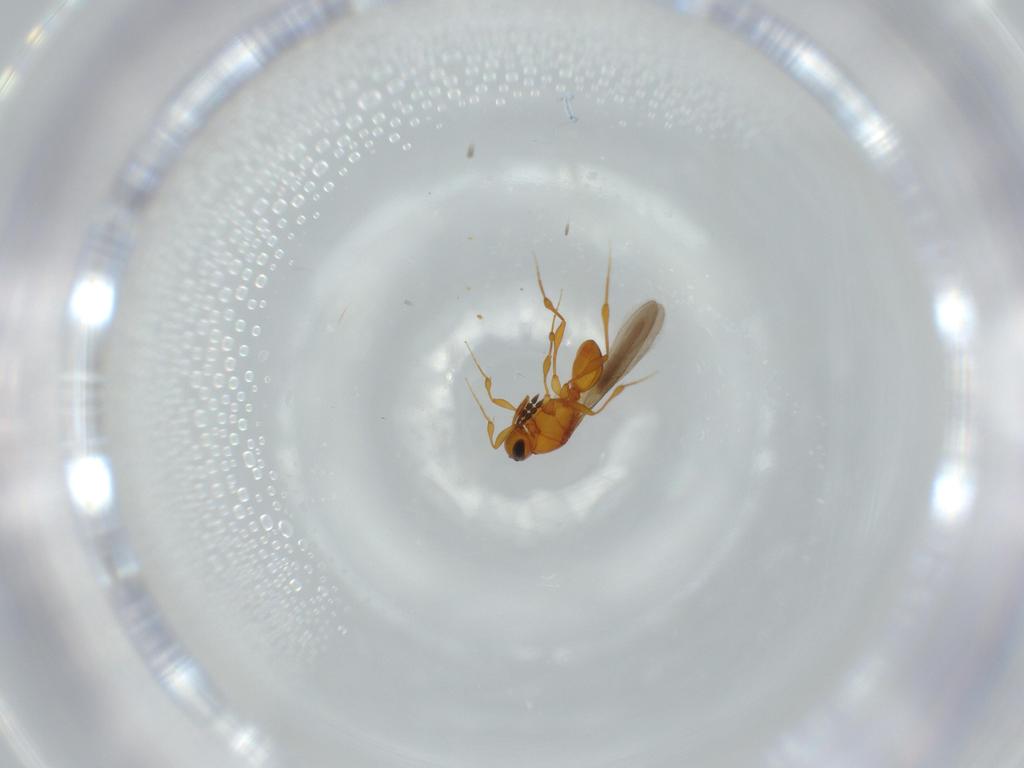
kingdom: Animalia
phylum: Arthropoda
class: Insecta
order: Hymenoptera
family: Platygastridae
